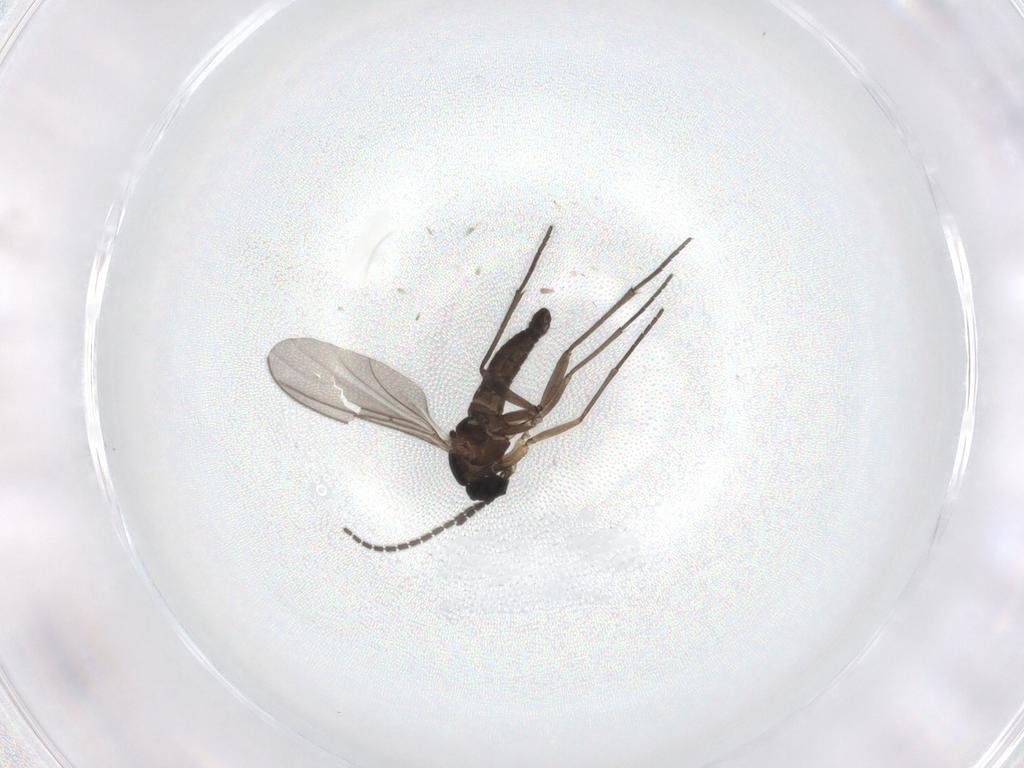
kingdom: Animalia
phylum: Arthropoda
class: Insecta
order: Diptera
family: Sciaridae
